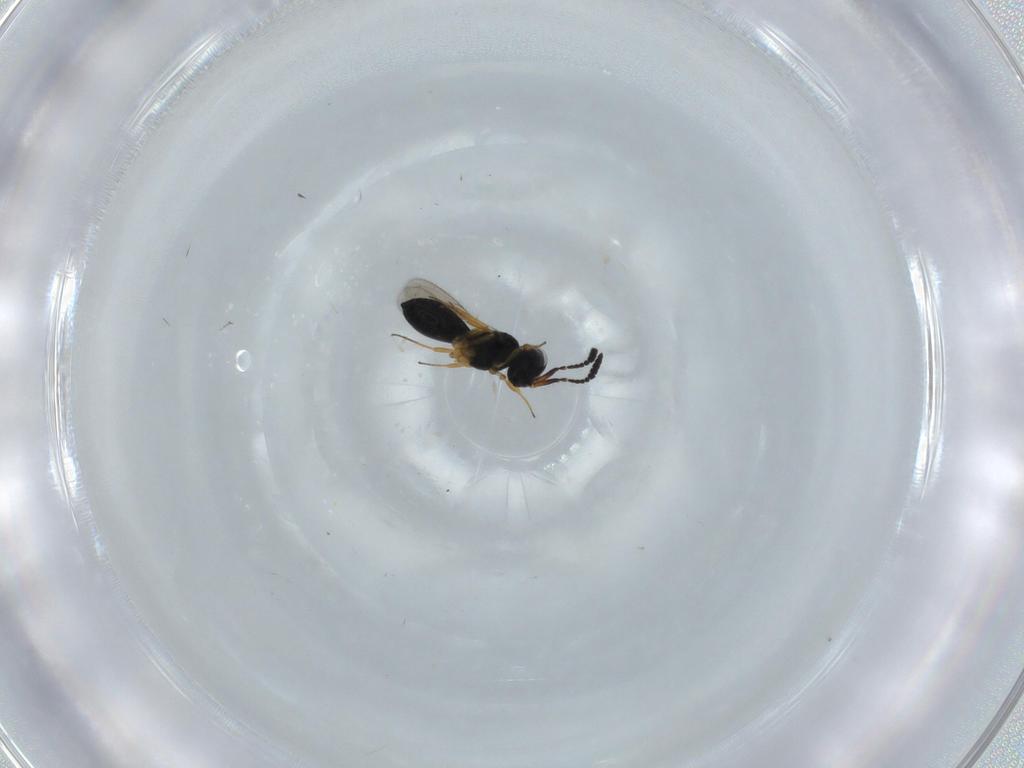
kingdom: Animalia
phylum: Arthropoda
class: Insecta
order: Hymenoptera
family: Scelionidae
